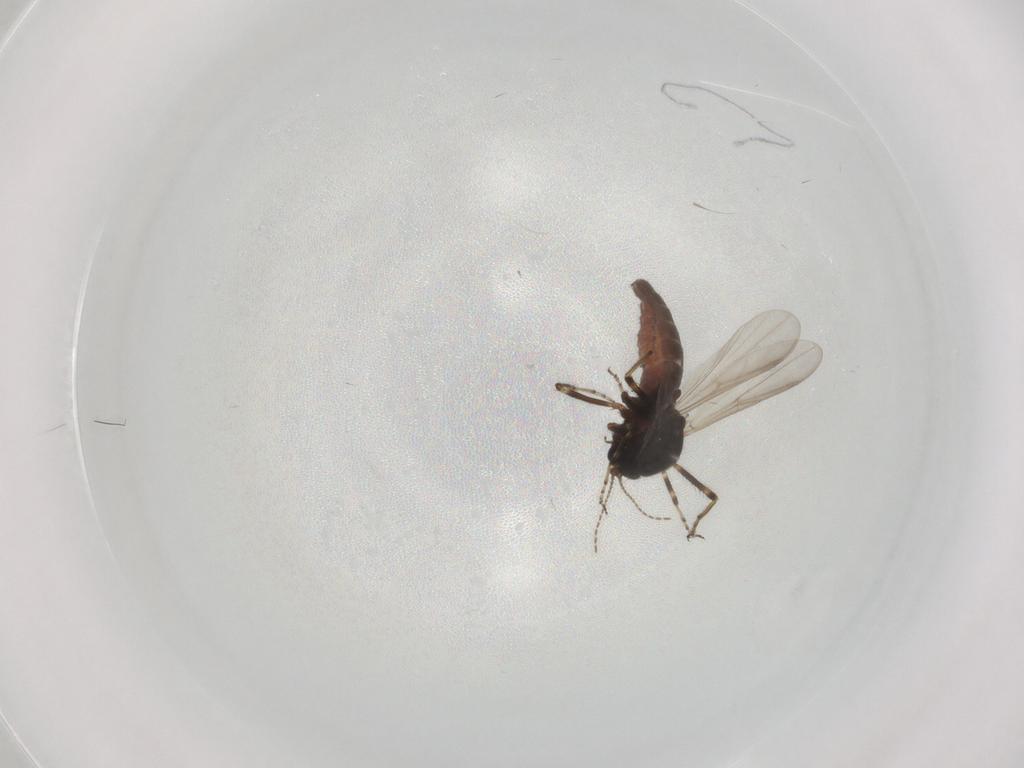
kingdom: Animalia
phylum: Arthropoda
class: Insecta
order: Diptera
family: Ceratopogonidae
